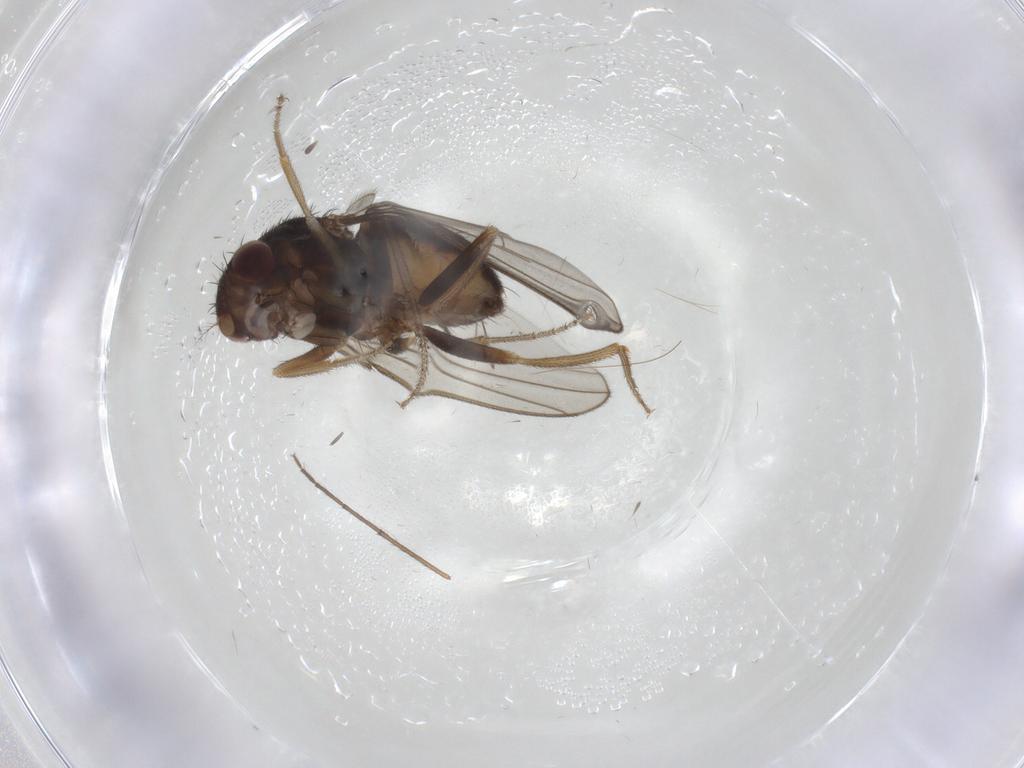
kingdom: Animalia
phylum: Arthropoda
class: Insecta
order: Diptera
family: Drosophilidae
